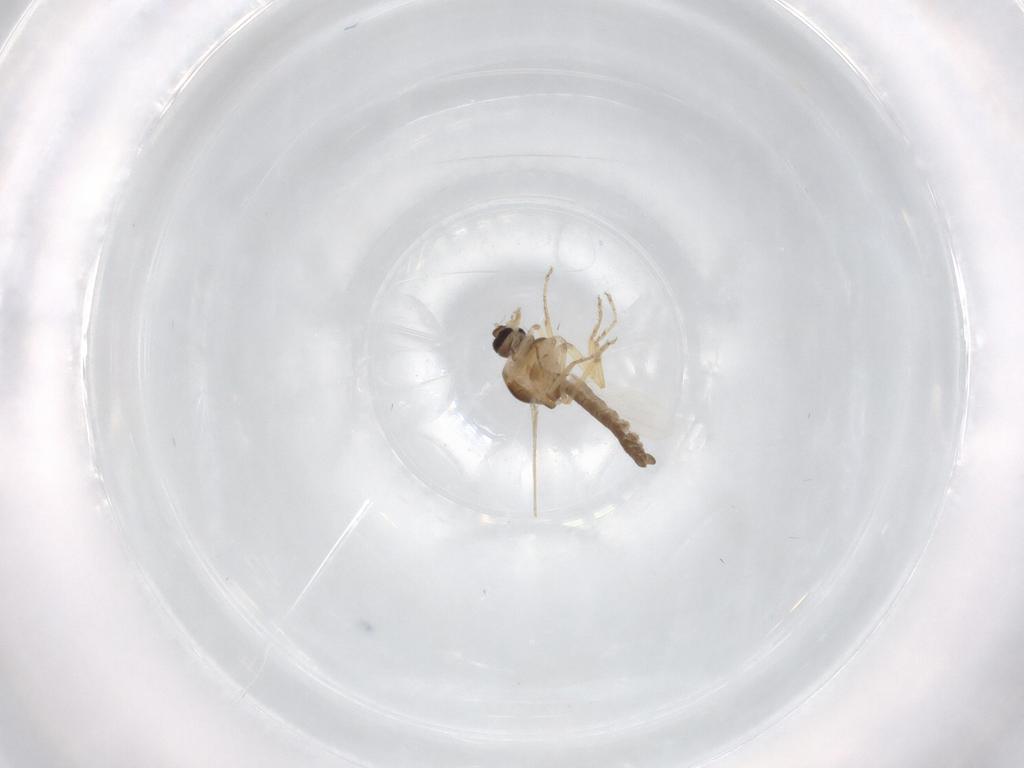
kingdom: Animalia
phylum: Arthropoda
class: Insecta
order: Diptera
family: Ceratopogonidae
